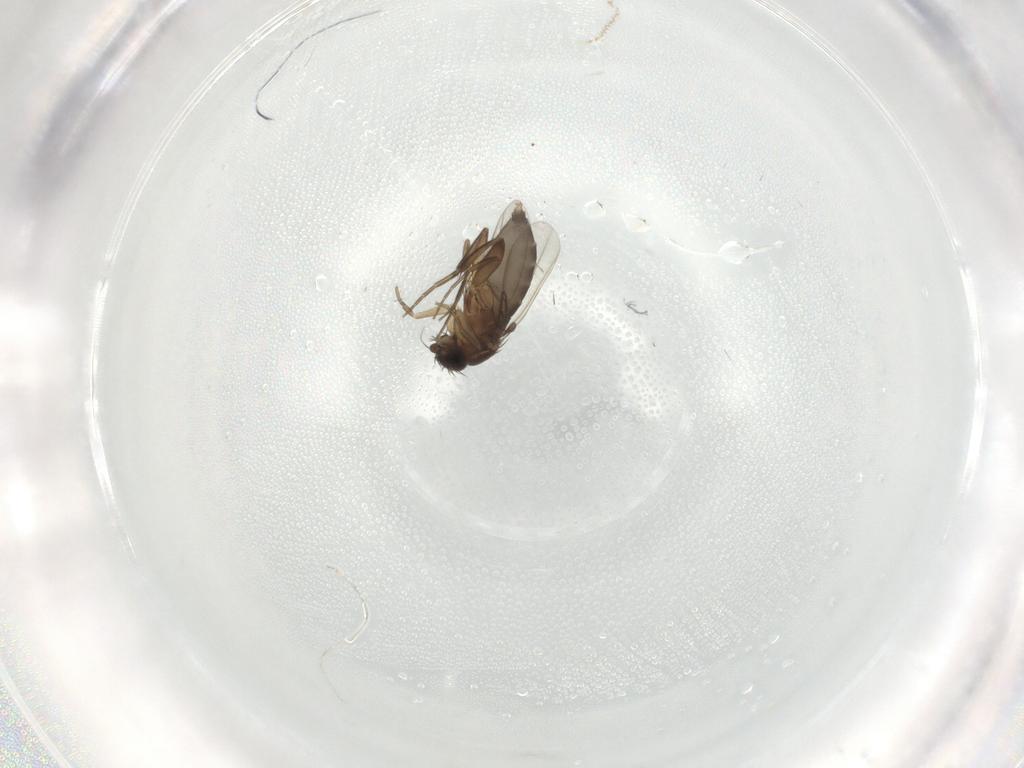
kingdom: Animalia
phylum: Arthropoda
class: Insecta
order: Diptera
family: Phoridae
